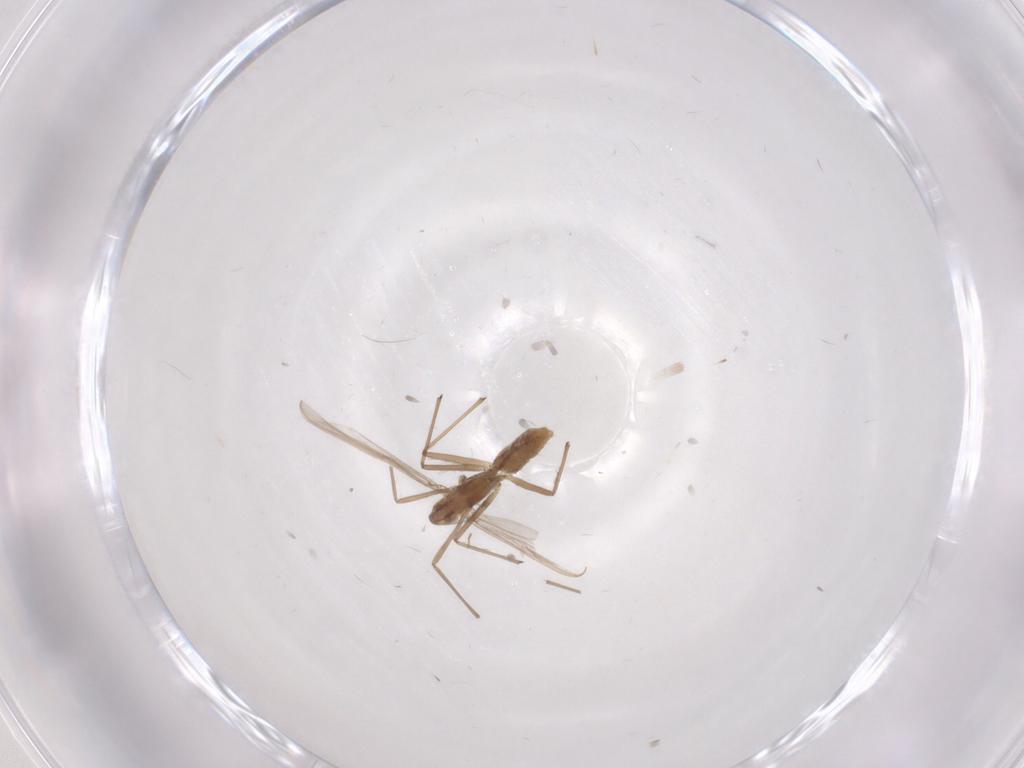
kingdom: Animalia
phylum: Arthropoda
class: Insecta
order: Diptera
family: Chironomidae
